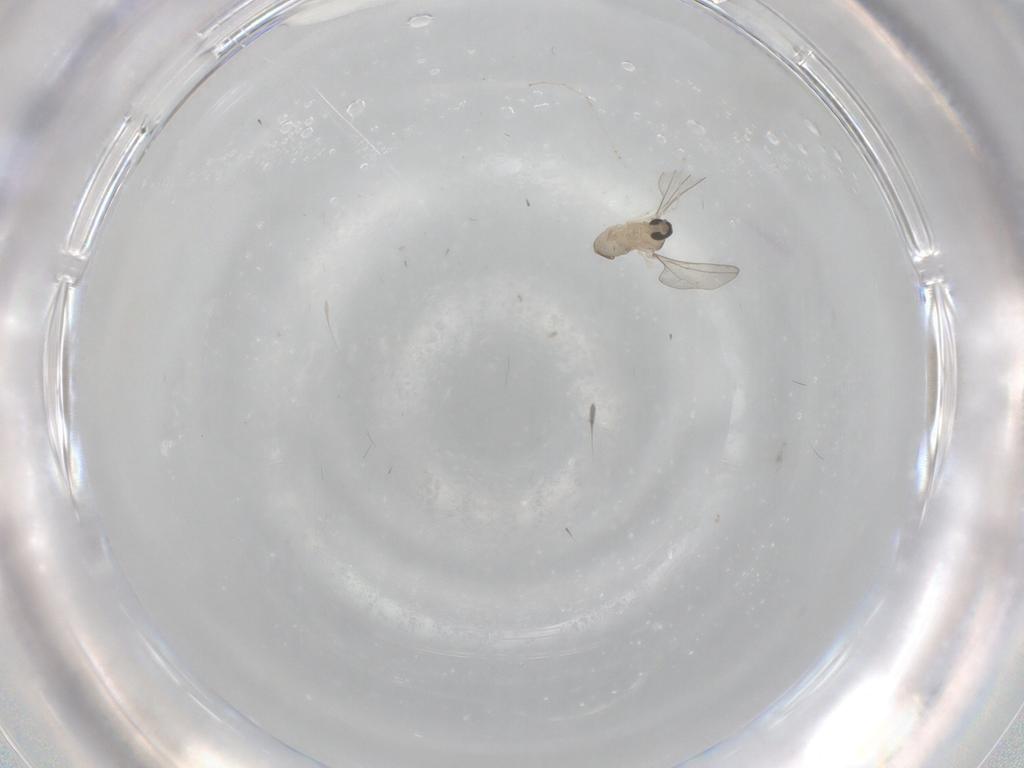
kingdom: Animalia
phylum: Arthropoda
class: Insecta
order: Diptera
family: Cecidomyiidae
